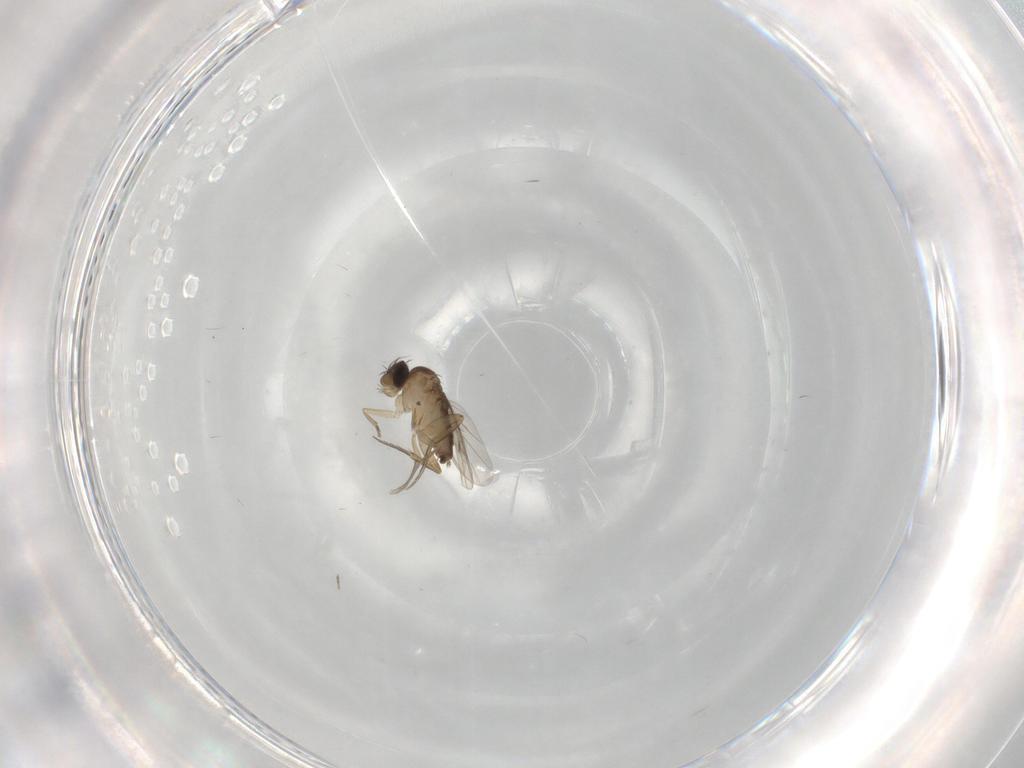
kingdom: Animalia
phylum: Arthropoda
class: Insecta
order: Diptera
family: Phoridae
